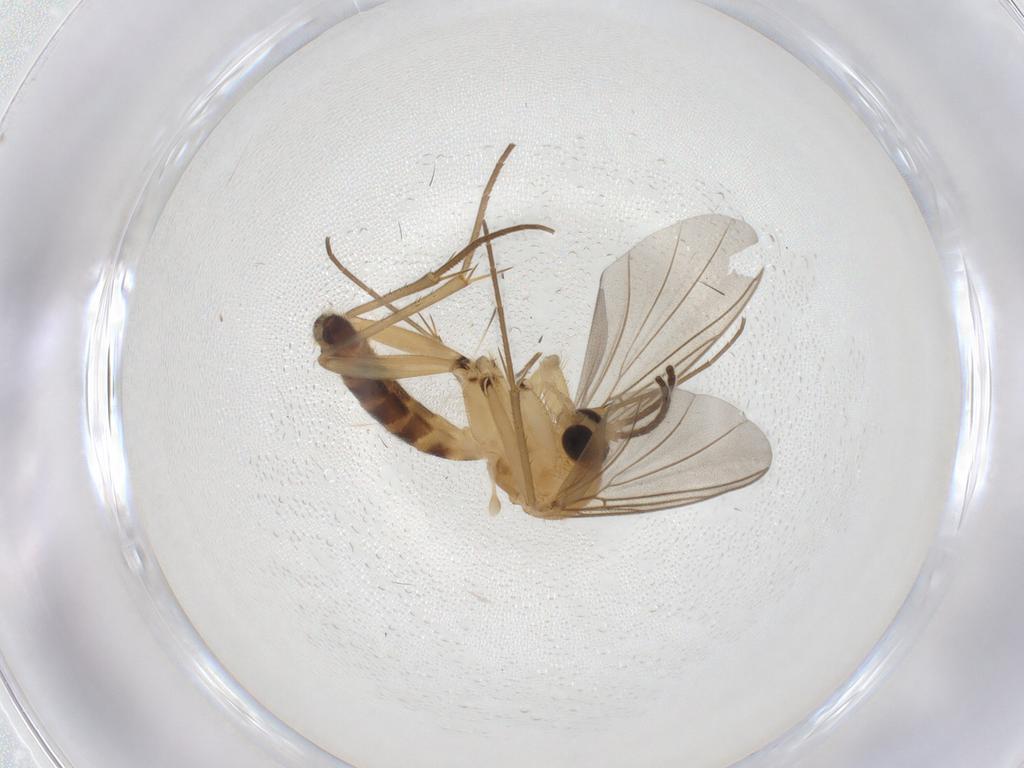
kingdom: Animalia
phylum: Arthropoda
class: Insecta
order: Diptera
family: Mycetophilidae
